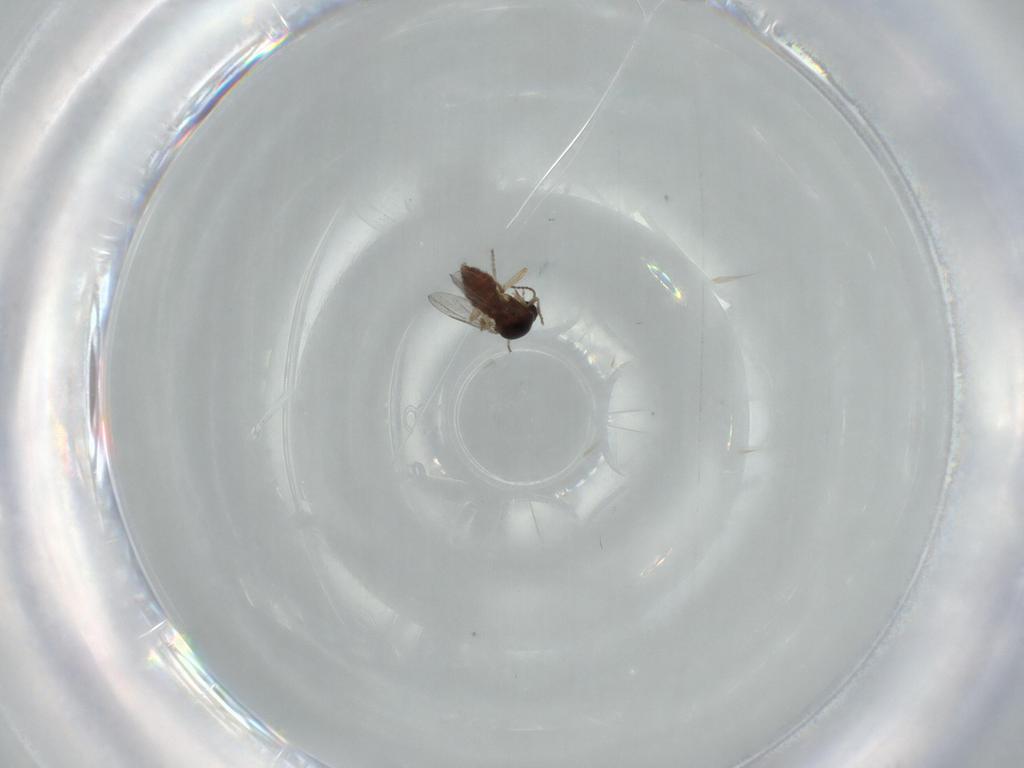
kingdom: Animalia
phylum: Arthropoda
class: Insecta
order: Diptera
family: Ceratopogonidae
